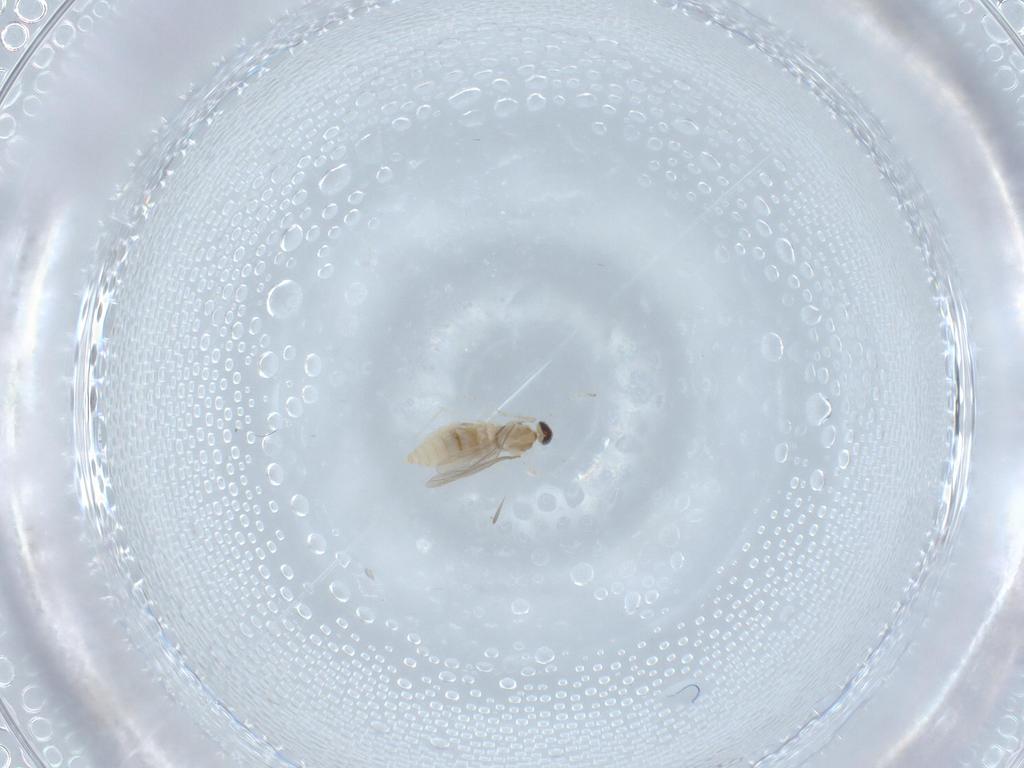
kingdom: Animalia
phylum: Arthropoda
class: Insecta
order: Diptera
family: Cecidomyiidae
